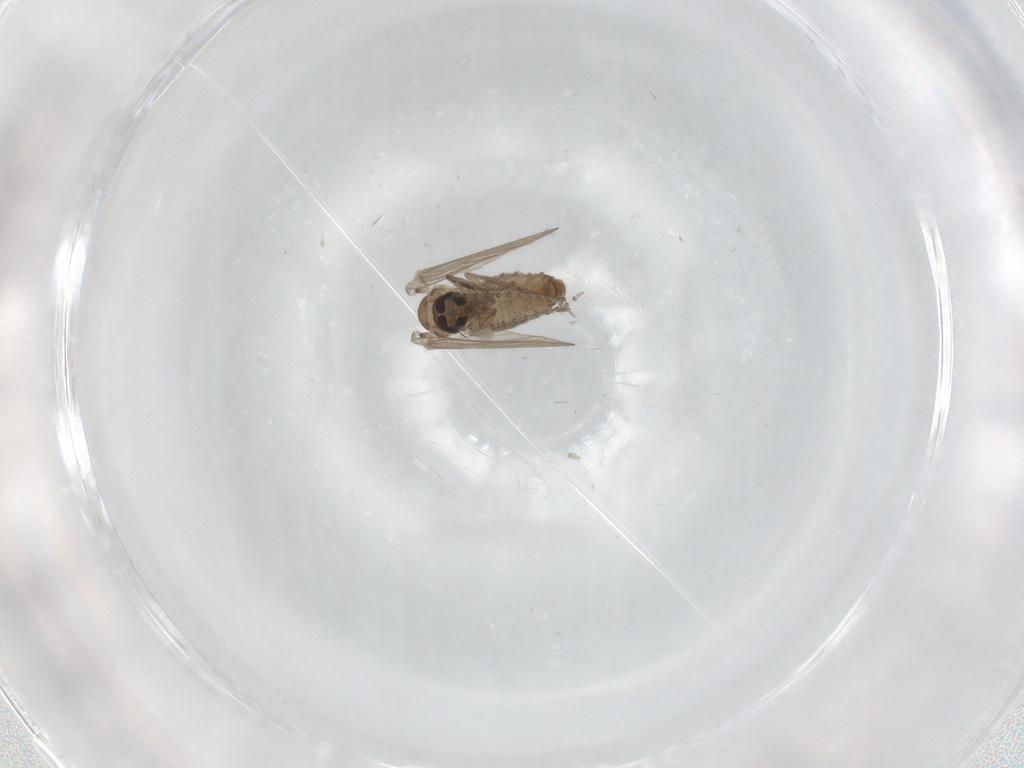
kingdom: Animalia
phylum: Arthropoda
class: Insecta
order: Diptera
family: Psychodidae
